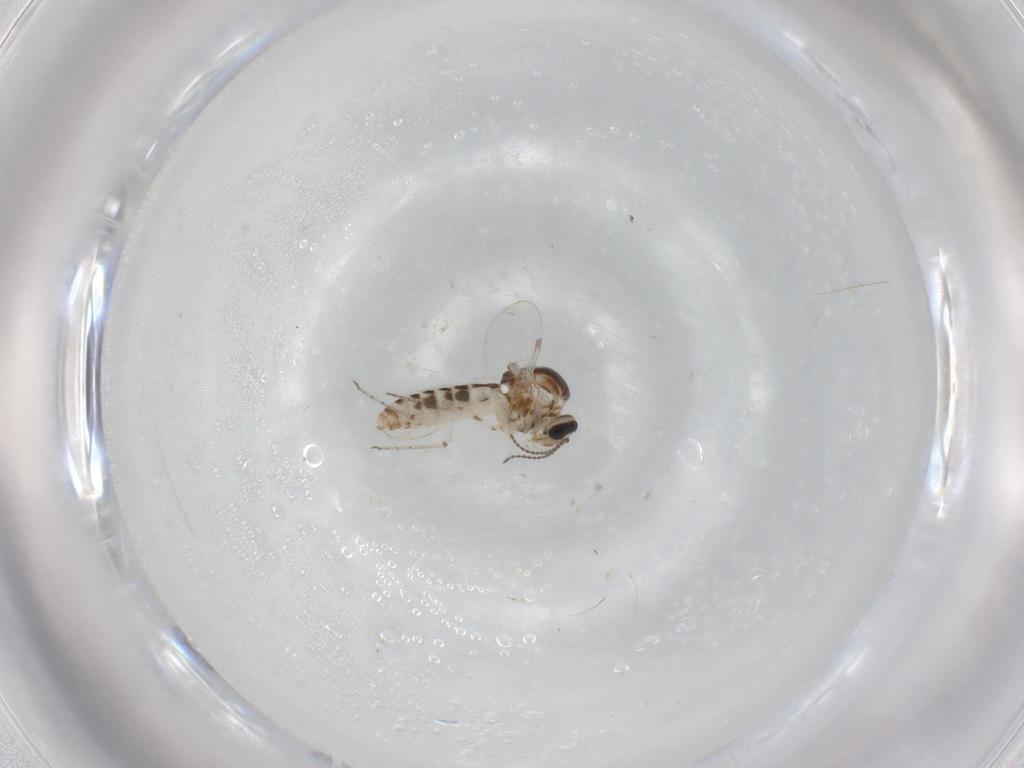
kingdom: Animalia
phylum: Arthropoda
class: Insecta
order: Diptera
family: Ceratopogonidae
